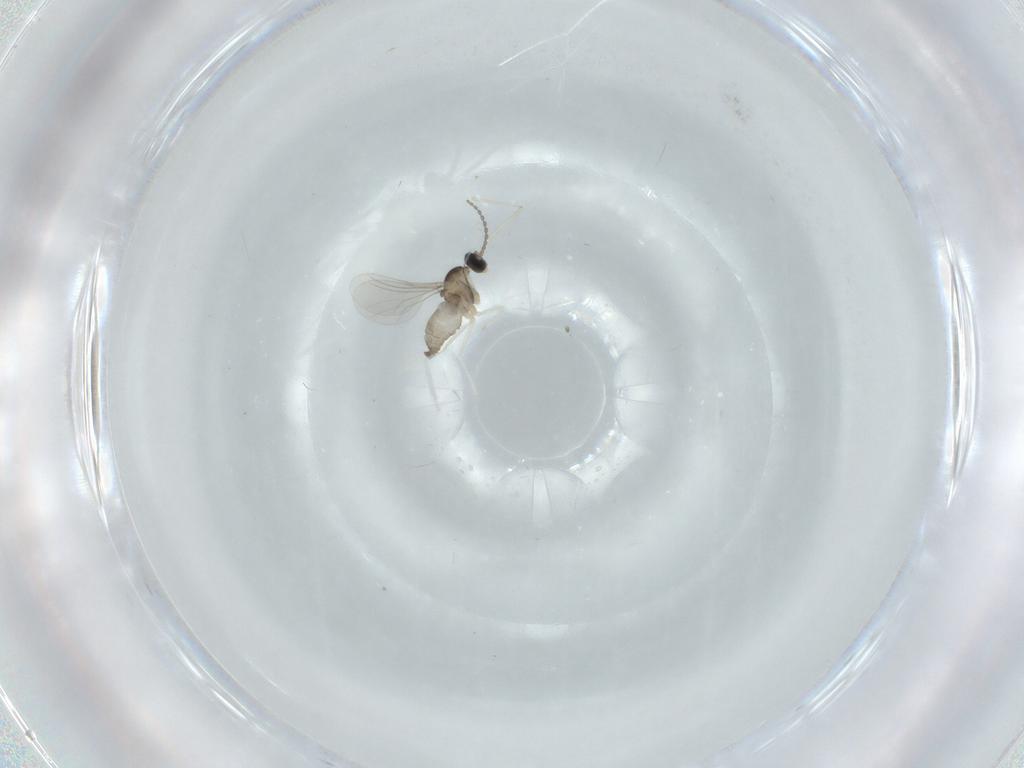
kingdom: Animalia
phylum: Arthropoda
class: Insecta
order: Diptera
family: Cecidomyiidae
